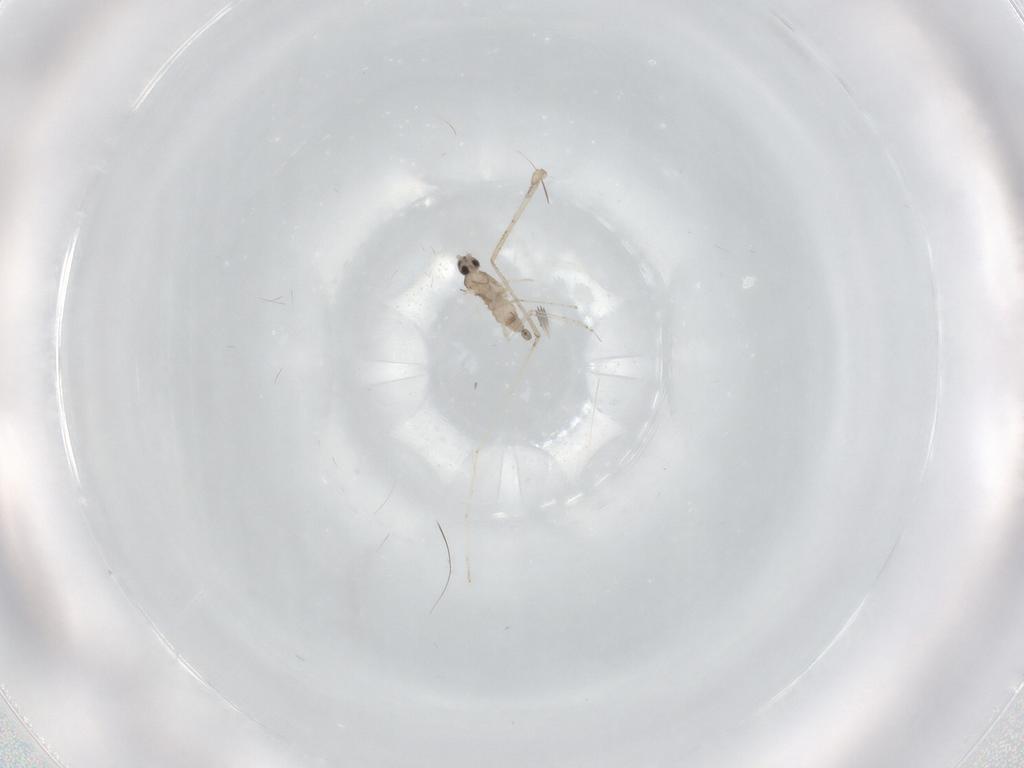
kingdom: Animalia
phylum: Arthropoda
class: Insecta
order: Diptera
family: Cecidomyiidae
